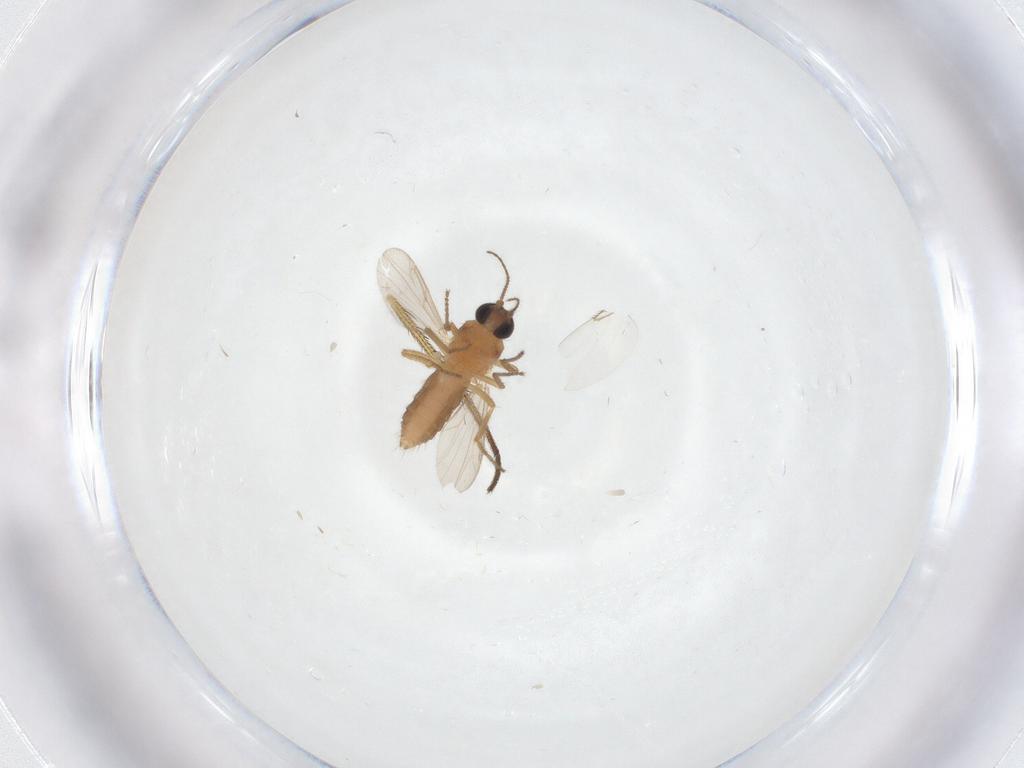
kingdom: Animalia
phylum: Arthropoda
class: Insecta
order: Diptera
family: Ceratopogonidae
